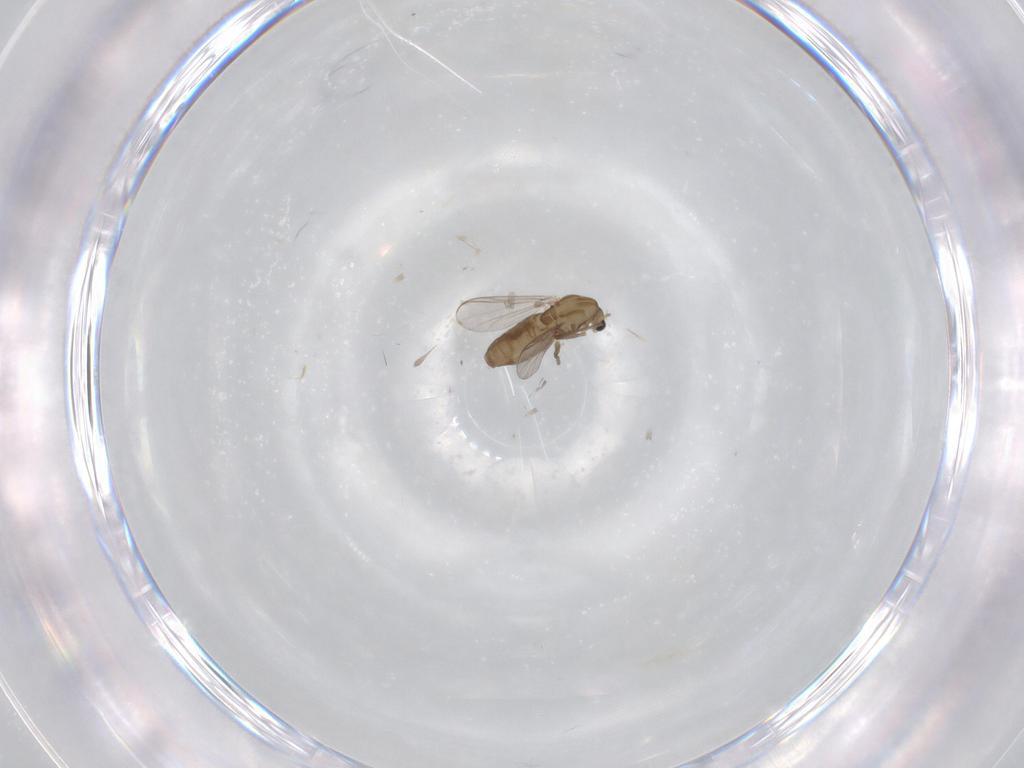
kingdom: Animalia
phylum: Arthropoda
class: Insecta
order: Diptera
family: Chironomidae
